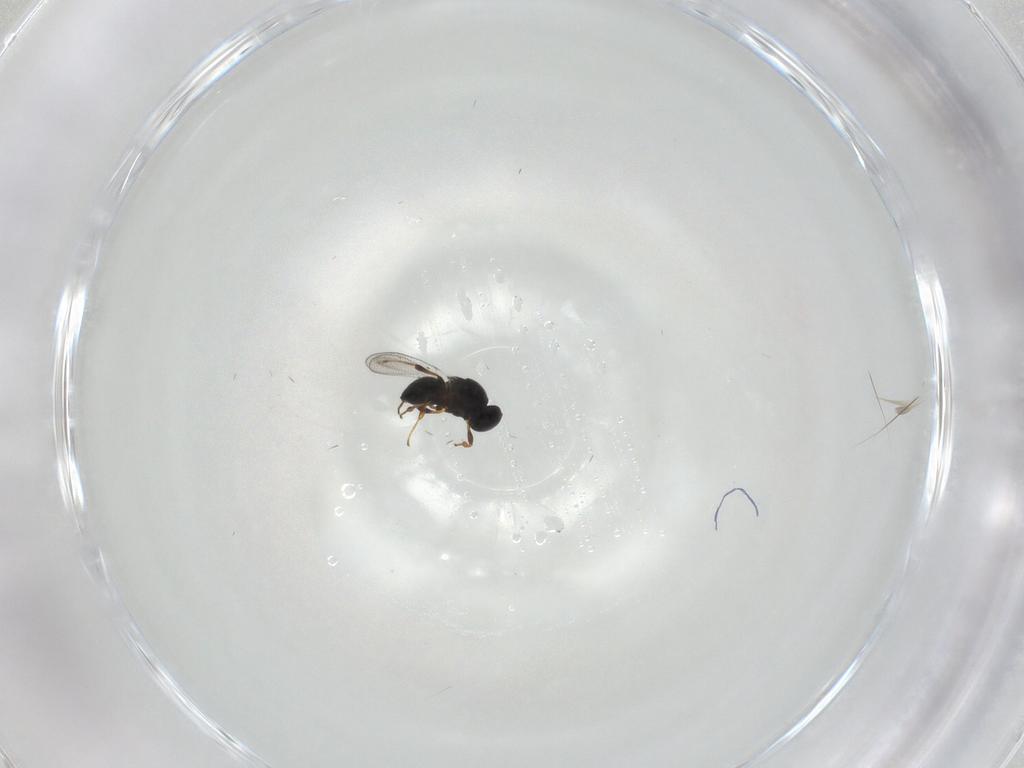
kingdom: Animalia
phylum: Arthropoda
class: Insecta
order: Hymenoptera
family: Platygastridae
